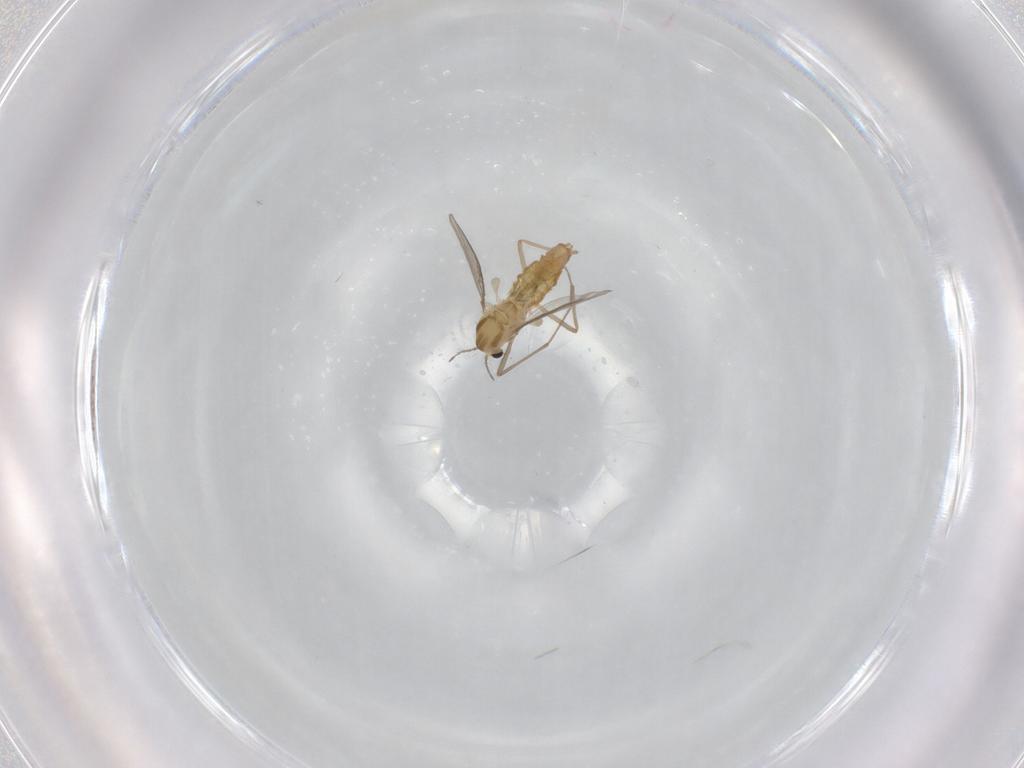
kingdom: Animalia
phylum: Arthropoda
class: Insecta
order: Diptera
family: Chironomidae
